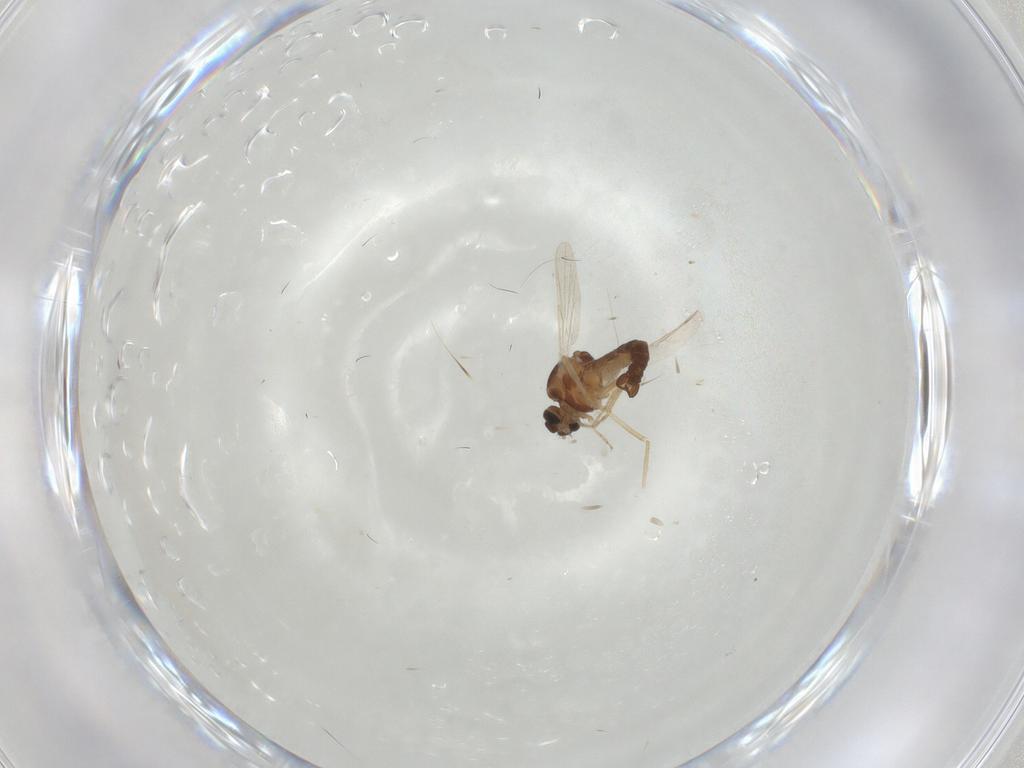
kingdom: Animalia
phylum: Arthropoda
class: Insecta
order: Diptera
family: Ceratopogonidae
